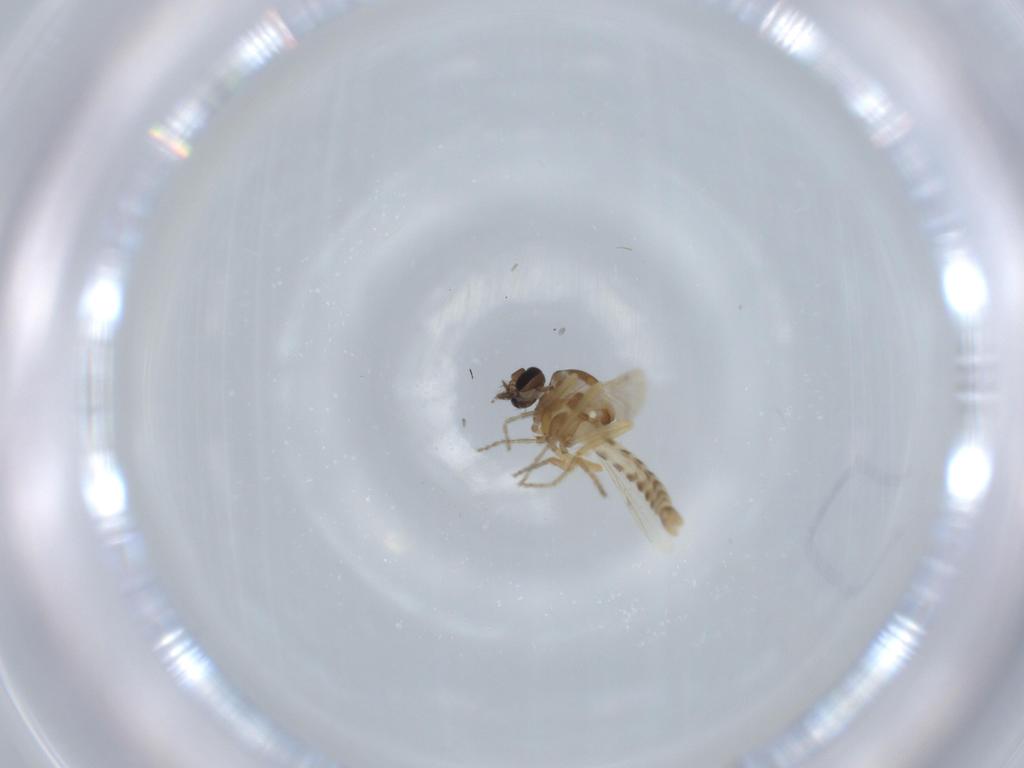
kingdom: Animalia
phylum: Arthropoda
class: Insecta
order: Diptera
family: Ceratopogonidae
